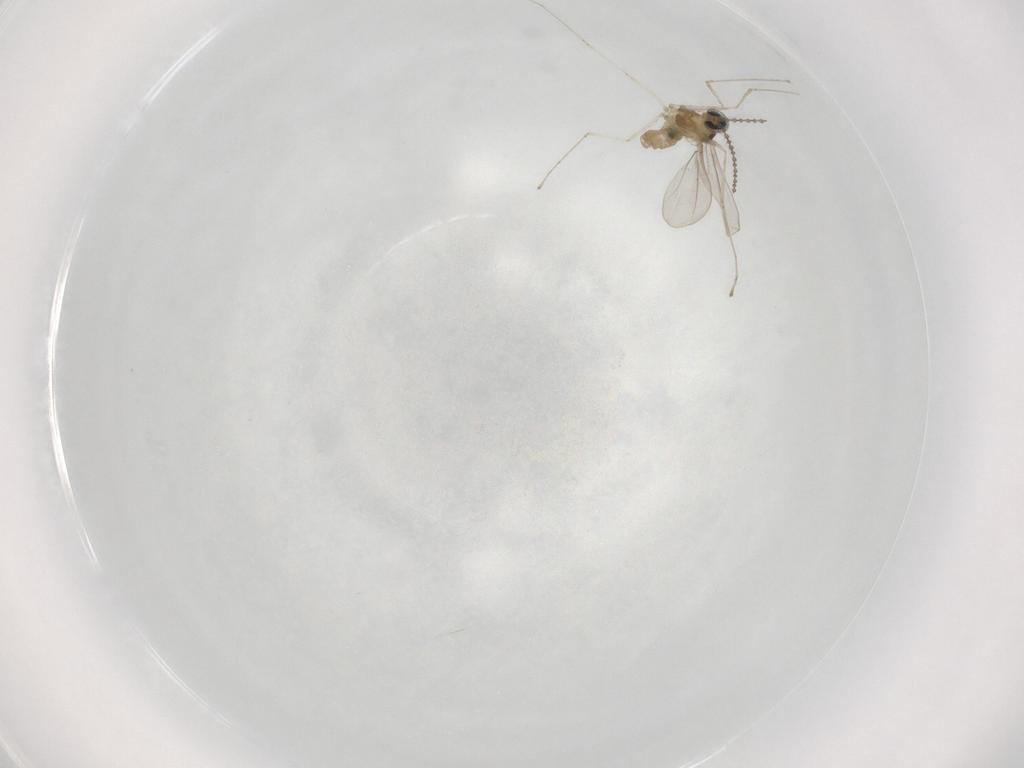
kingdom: Animalia
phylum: Arthropoda
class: Insecta
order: Diptera
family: Cecidomyiidae
